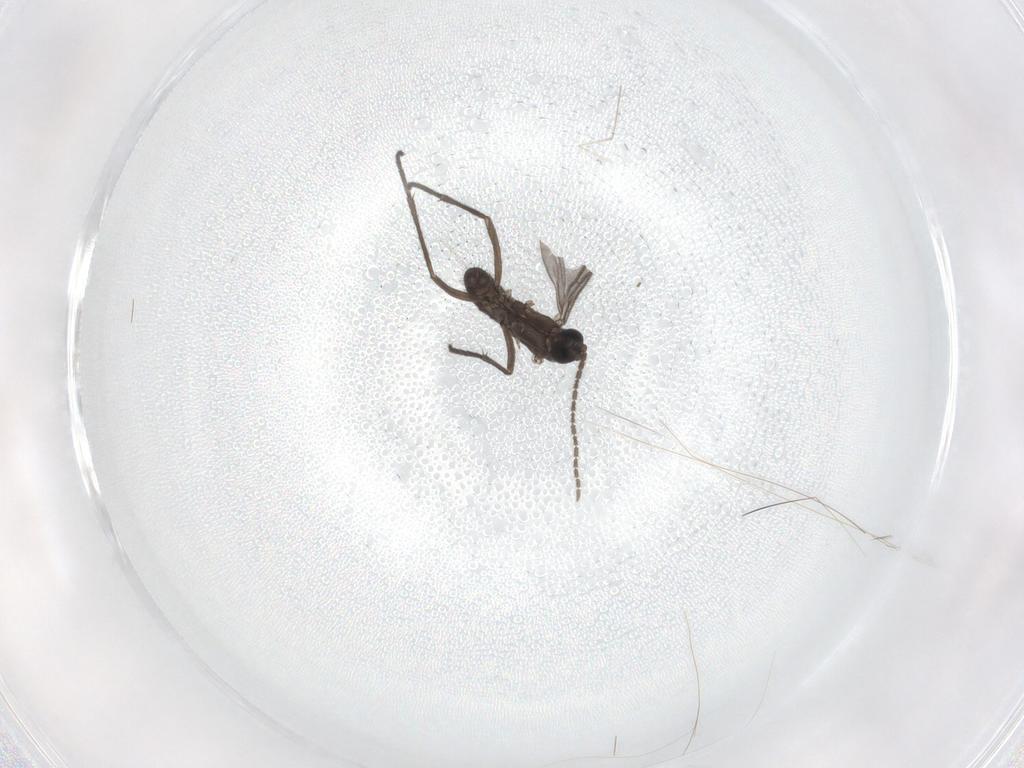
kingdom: Animalia
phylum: Arthropoda
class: Insecta
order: Diptera
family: Sciaridae
